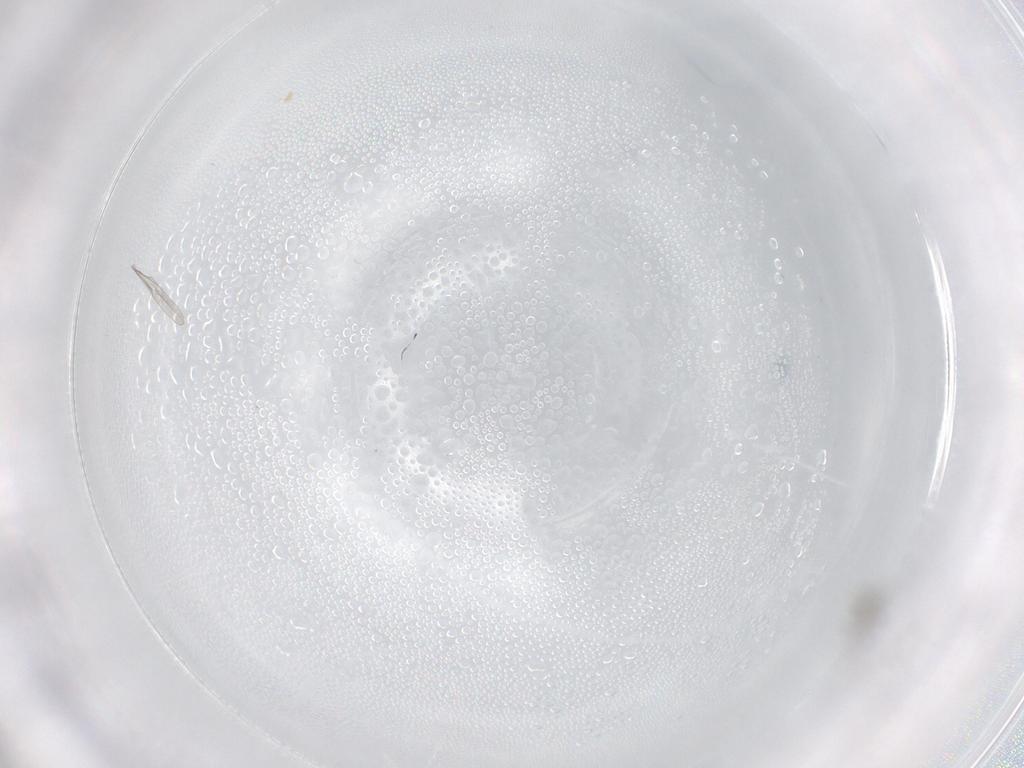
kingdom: Animalia
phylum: Arthropoda
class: Insecta
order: Diptera
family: Cecidomyiidae
